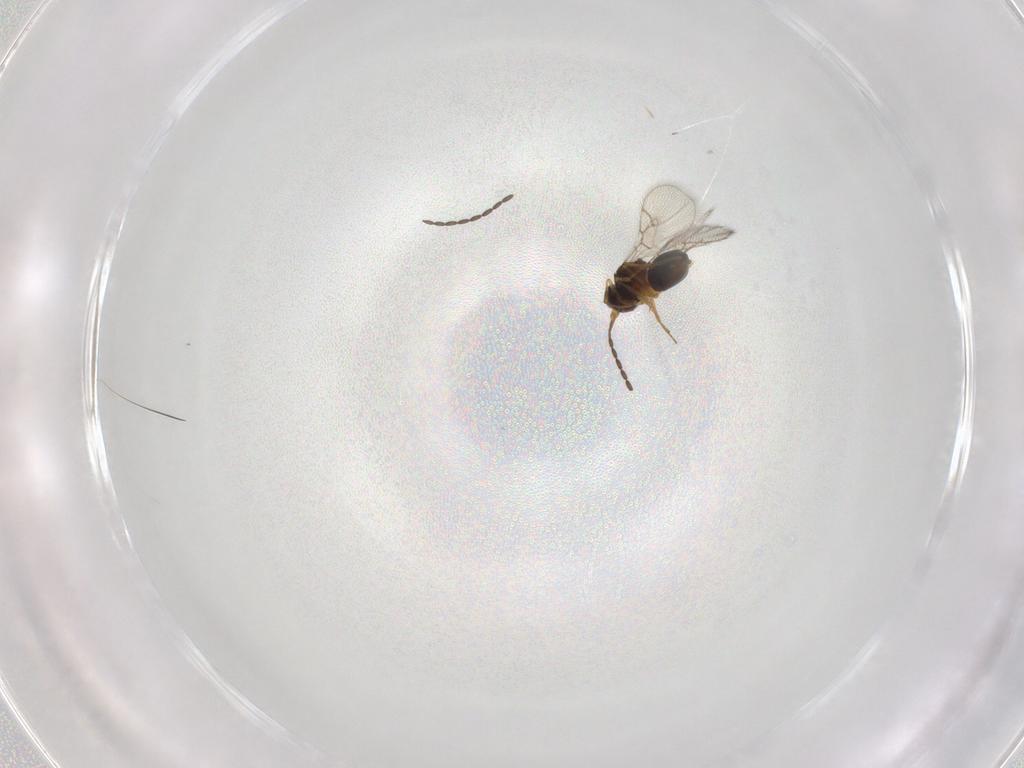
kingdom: Animalia
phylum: Arthropoda
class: Insecta
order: Hymenoptera
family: Figitidae
